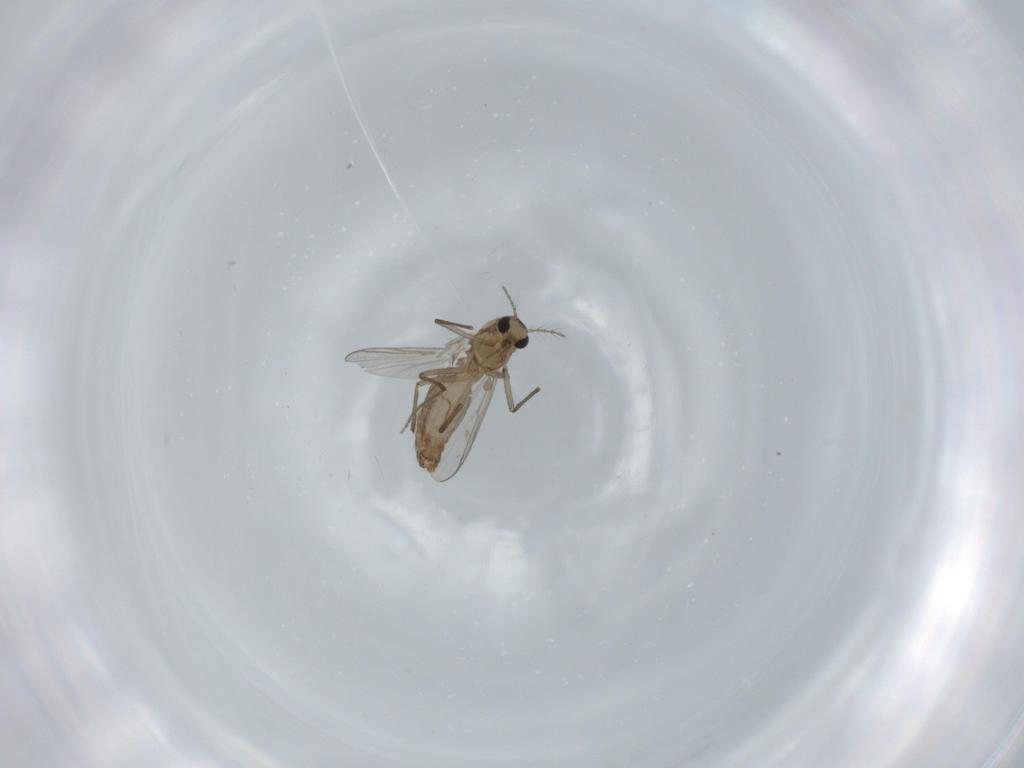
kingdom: Animalia
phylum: Arthropoda
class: Insecta
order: Diptera
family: Chironomidae
